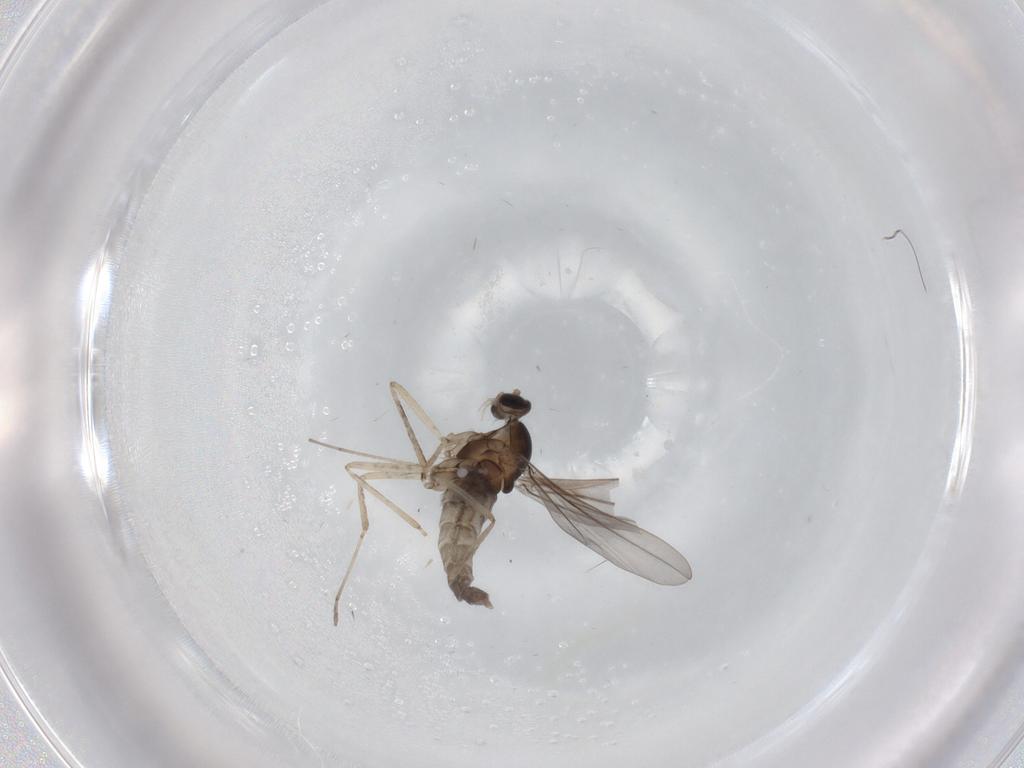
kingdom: Animalia
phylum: Arthropoda
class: Insecta
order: Diptera
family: Cecidomyiidae
